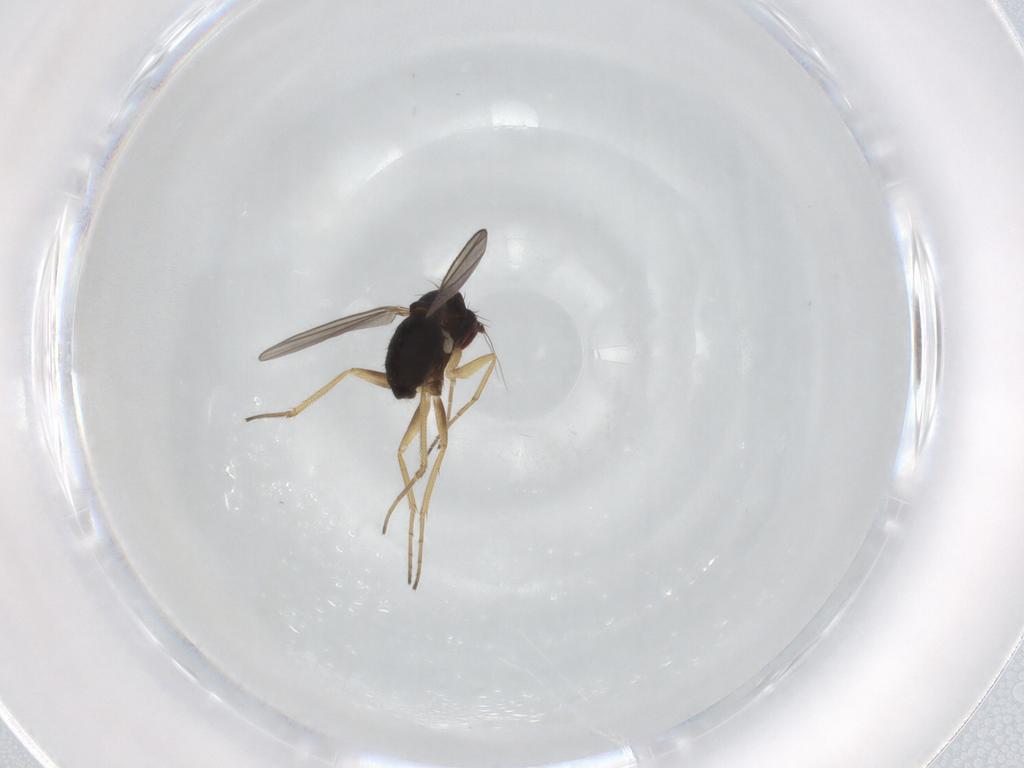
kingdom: Animalia
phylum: Arthropoda
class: Insecta
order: Diptera
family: Dolichopodidae
